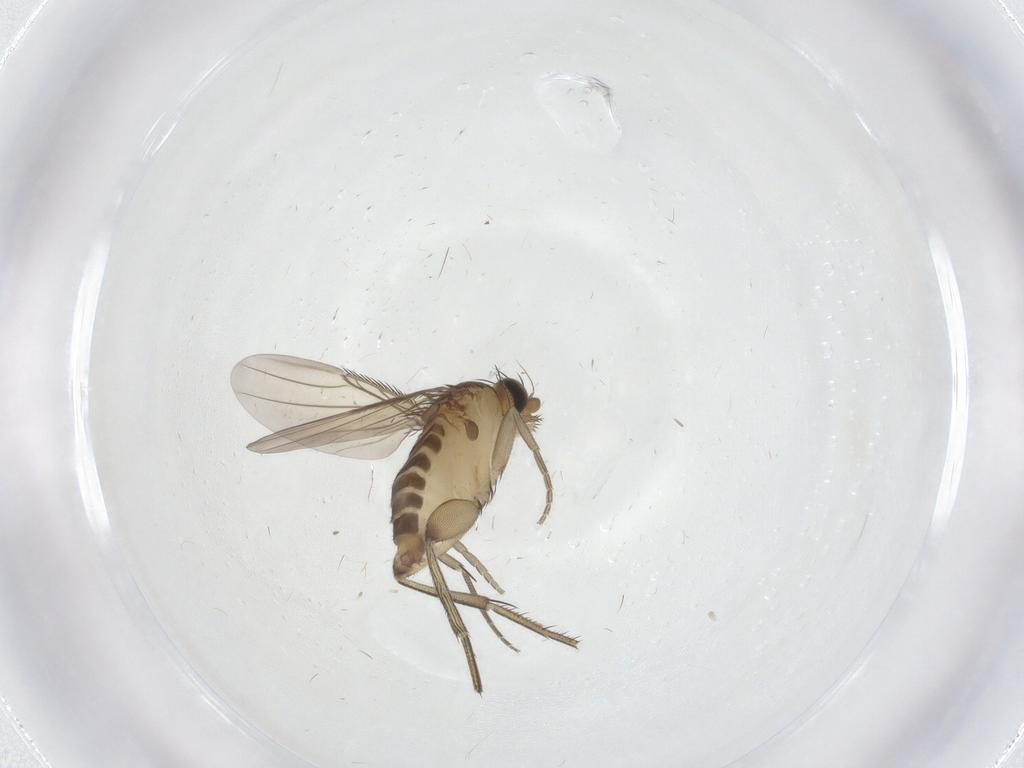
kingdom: Animalia
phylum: Arthropoda
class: Insecta
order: Diptera
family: Phoridae
